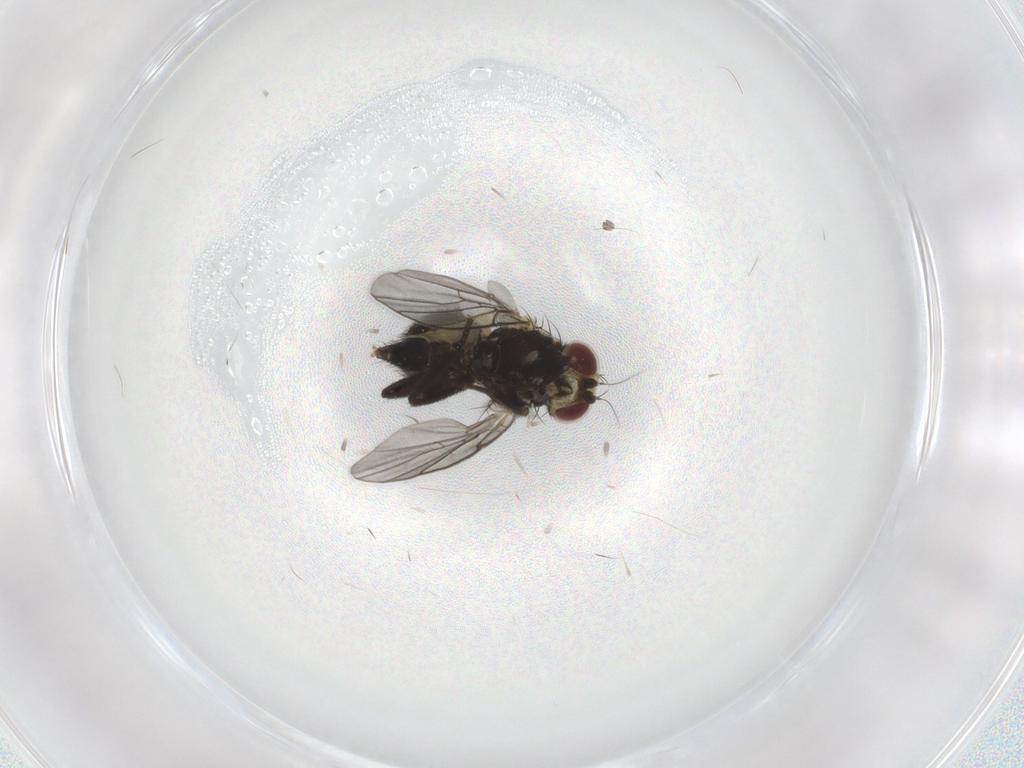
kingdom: Animalia
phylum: Arthropoda
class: Insecta
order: Diptera
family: Agromyzidae
